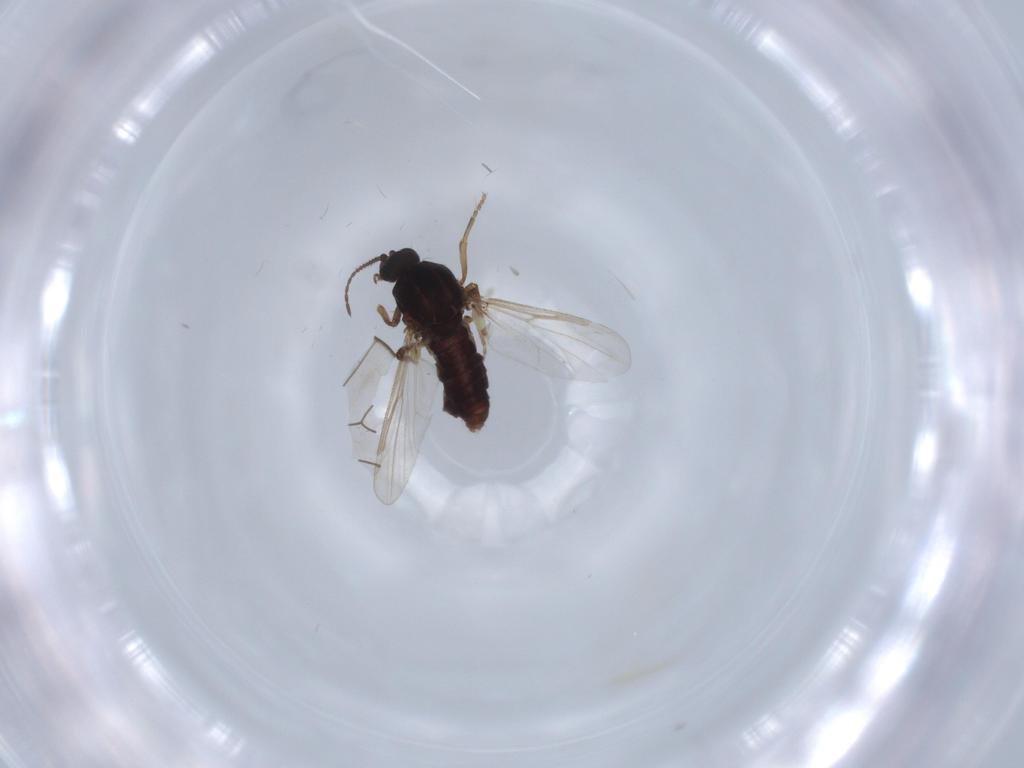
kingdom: Animalia
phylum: Arthropoda
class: Insecta
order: Diptera
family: Ceratopogonidae
